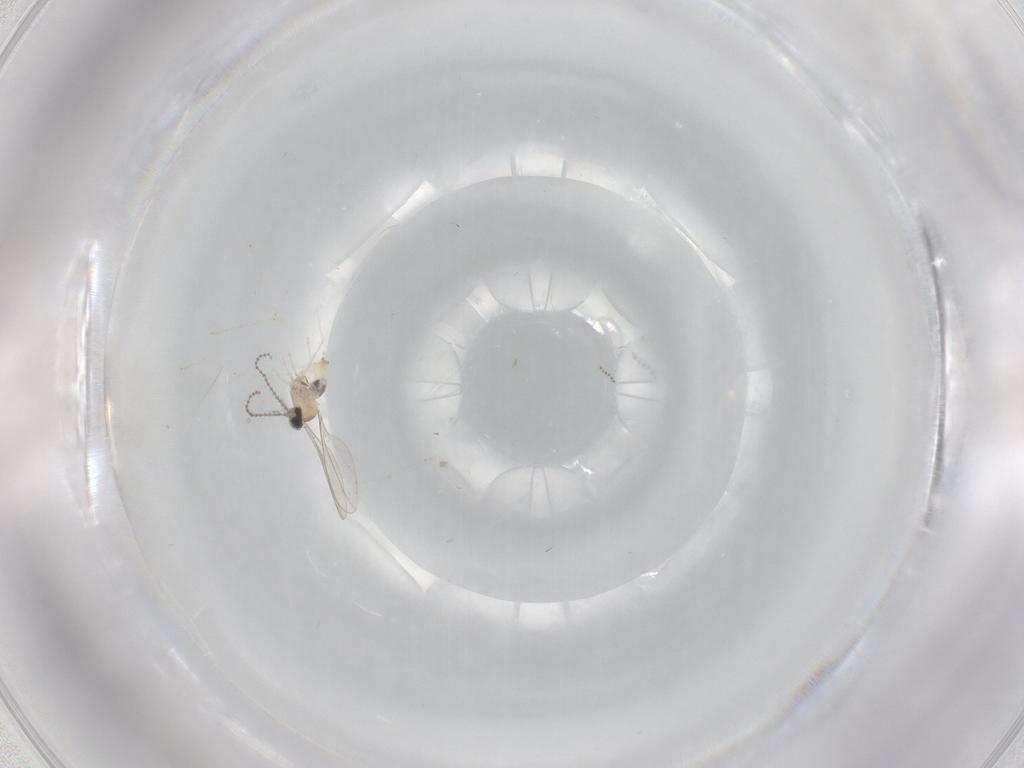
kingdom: Animalia
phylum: Arthropoda
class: Insecta
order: Diptera
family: Cecidomyiidae
